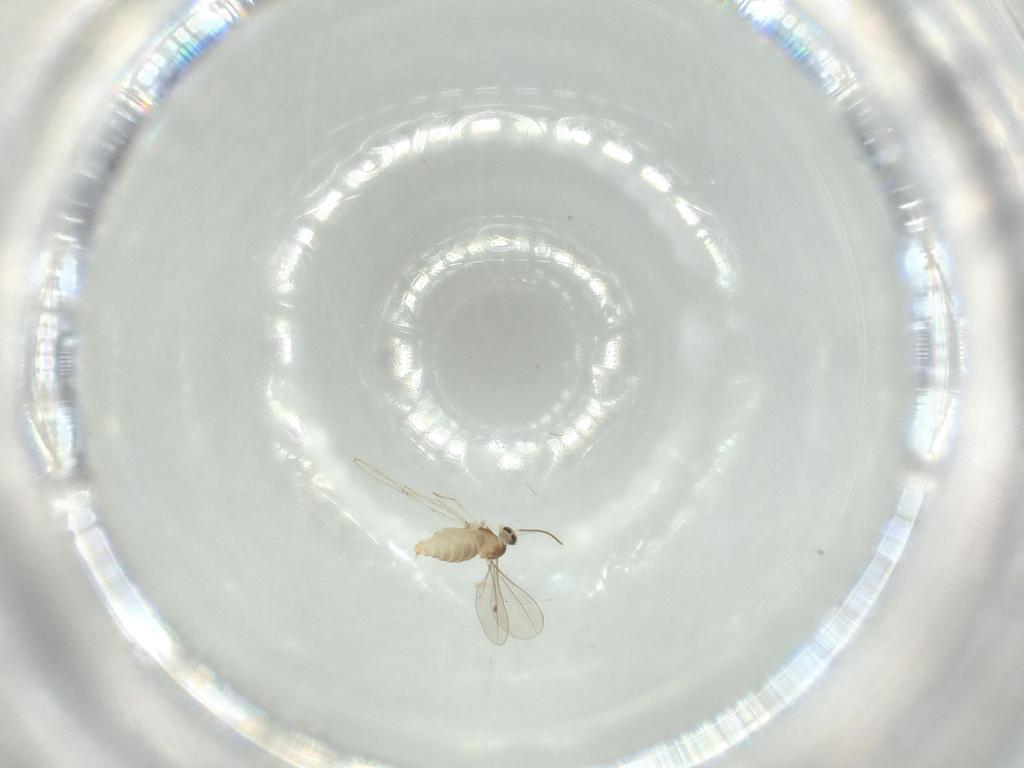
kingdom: Animalia
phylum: Arthropoda
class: Insecta
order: Diptera
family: Cecidomyiidae
